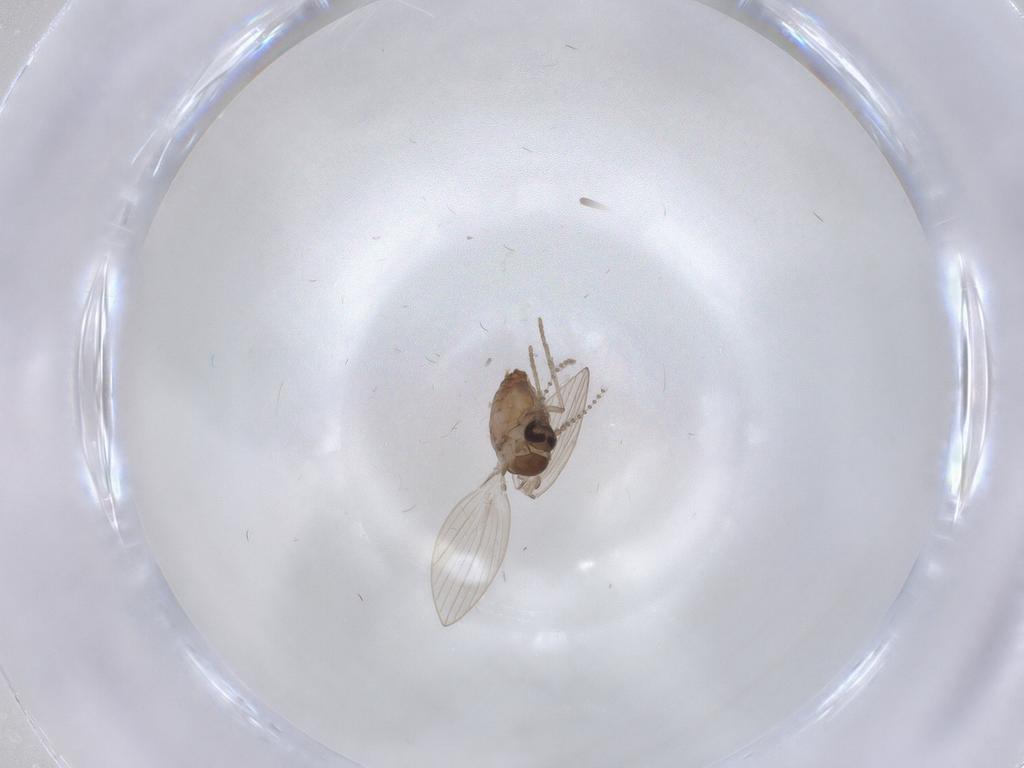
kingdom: Animalia
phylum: Arthropoda
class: Insecta
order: Diptera
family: Psychodidae
